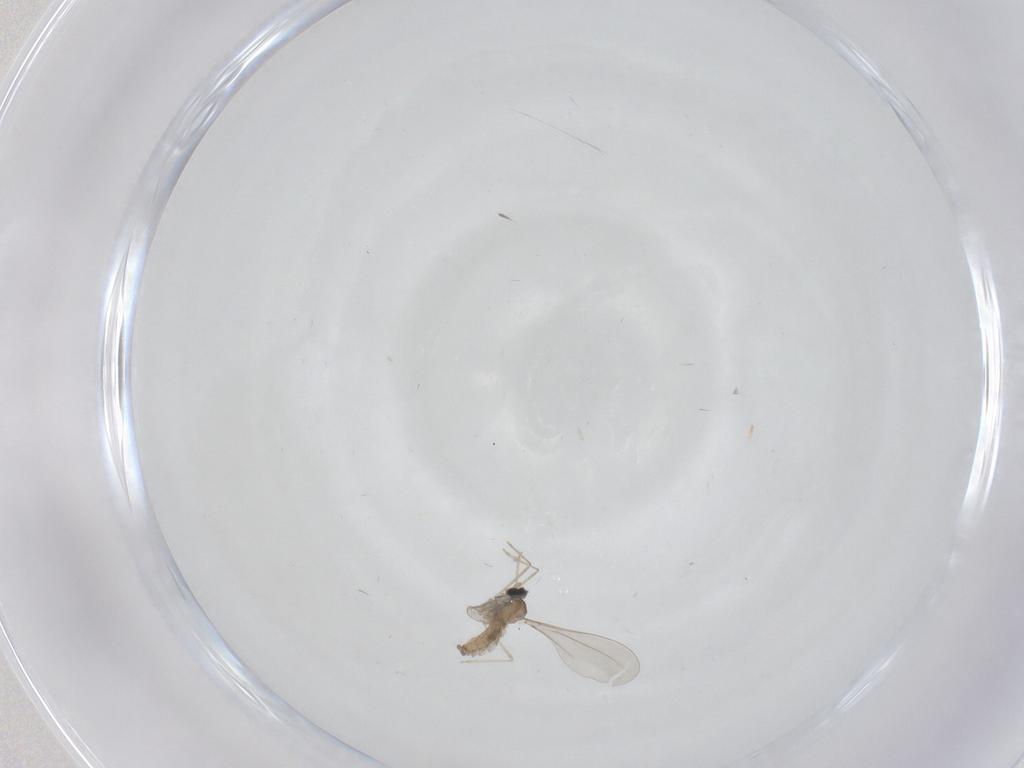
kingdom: Animalia
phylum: Arthropoda
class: Insecta
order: Diptera
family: Cecidomyiidae
